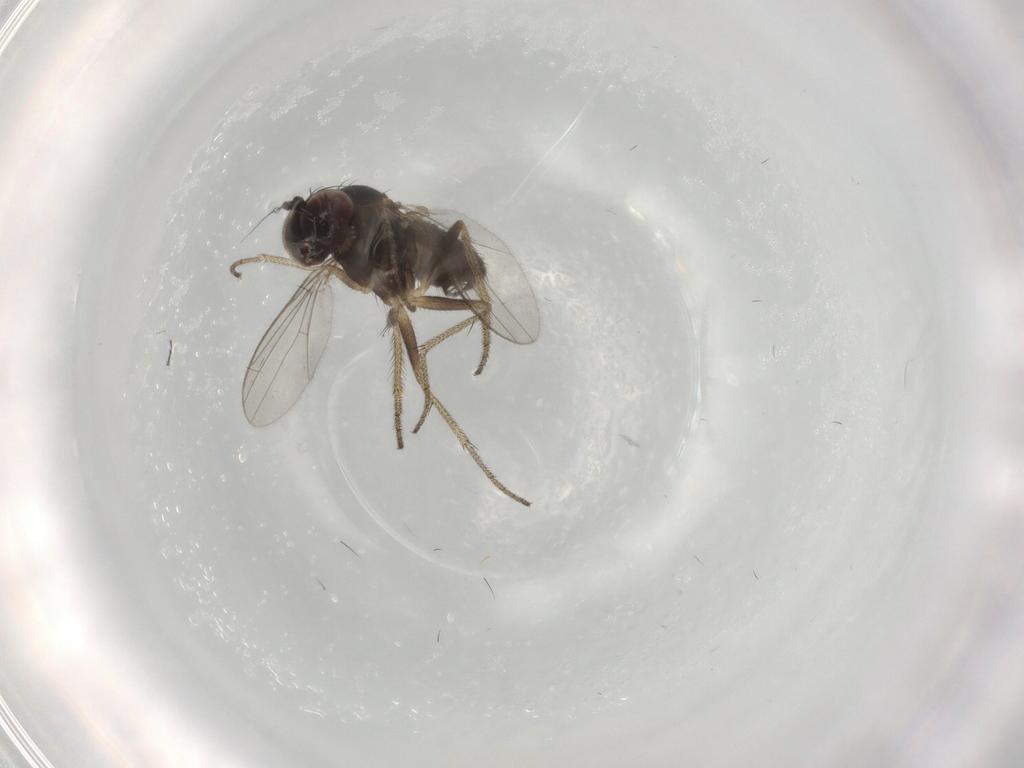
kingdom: Animalia
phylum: Arthropoda
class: Insecta
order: Diptera
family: Dolichopodidae
